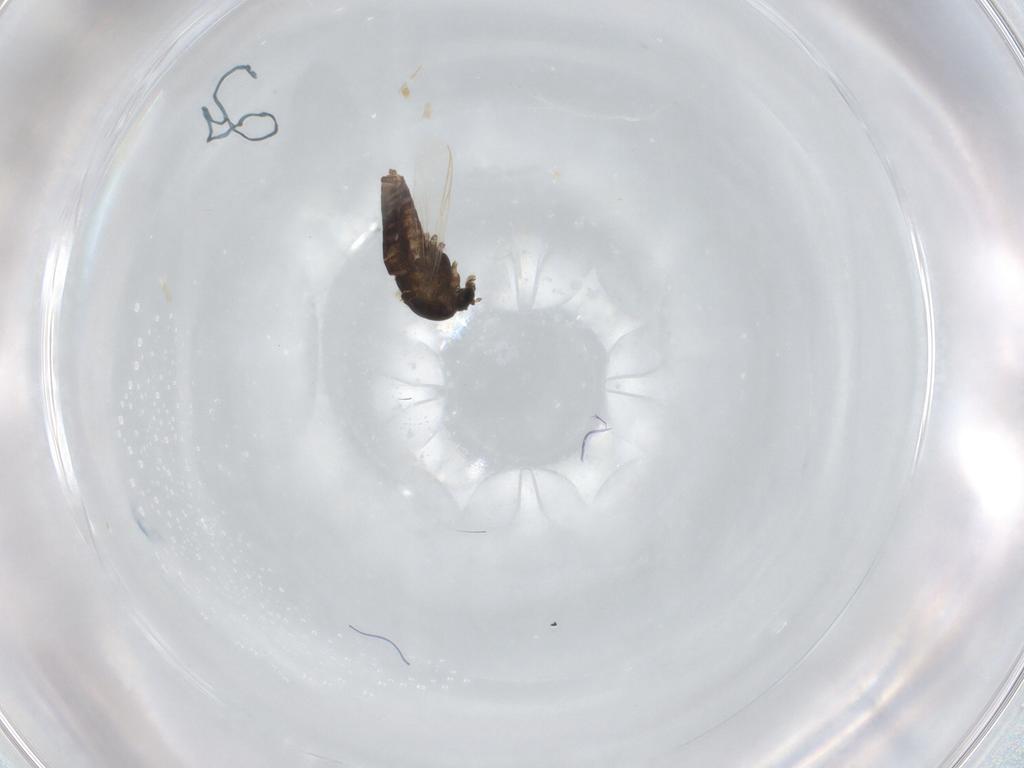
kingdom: Animalia
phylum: Arthropoda
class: Insecta
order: Diptera
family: Chironomidae
